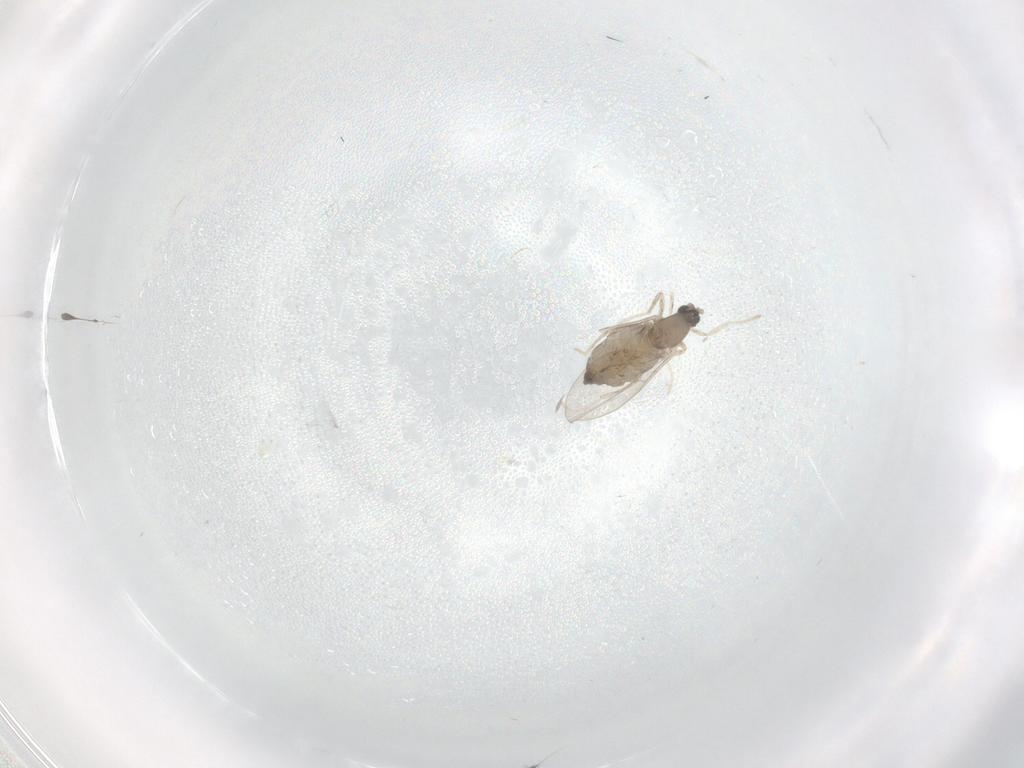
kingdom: Animalia
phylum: Arthropoda
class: Insecta
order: Diptera
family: Cecidomyiidae
